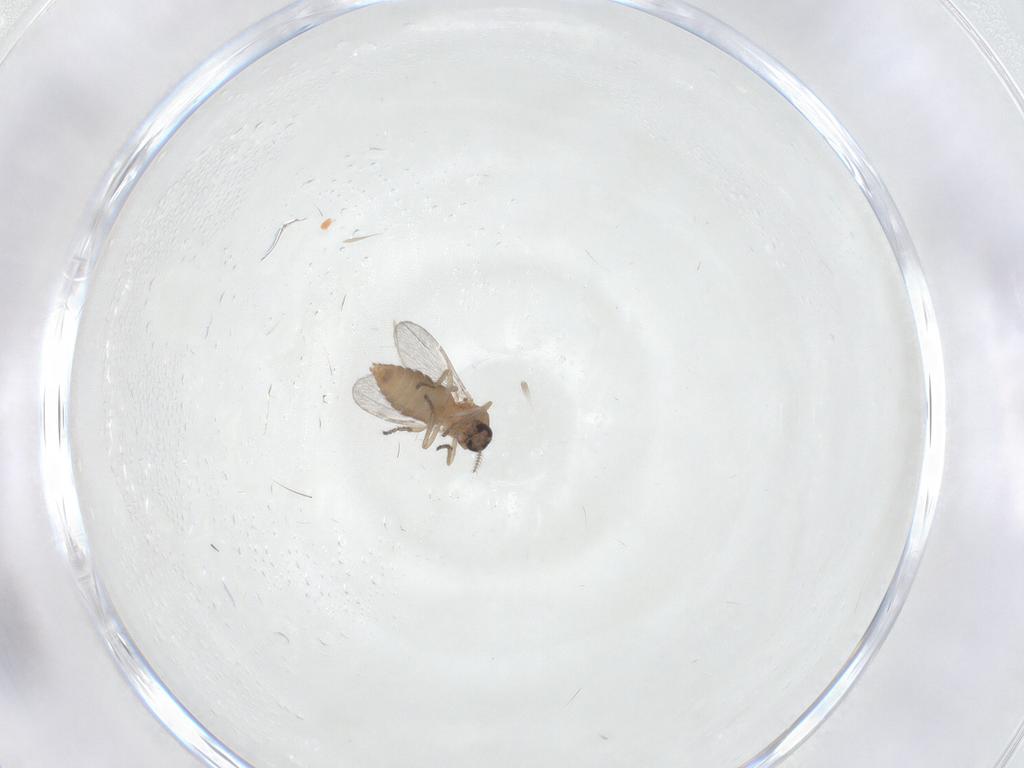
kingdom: Animalia
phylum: Arthropoda
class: Insecta
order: Diptera
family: Ceratopogonidae
